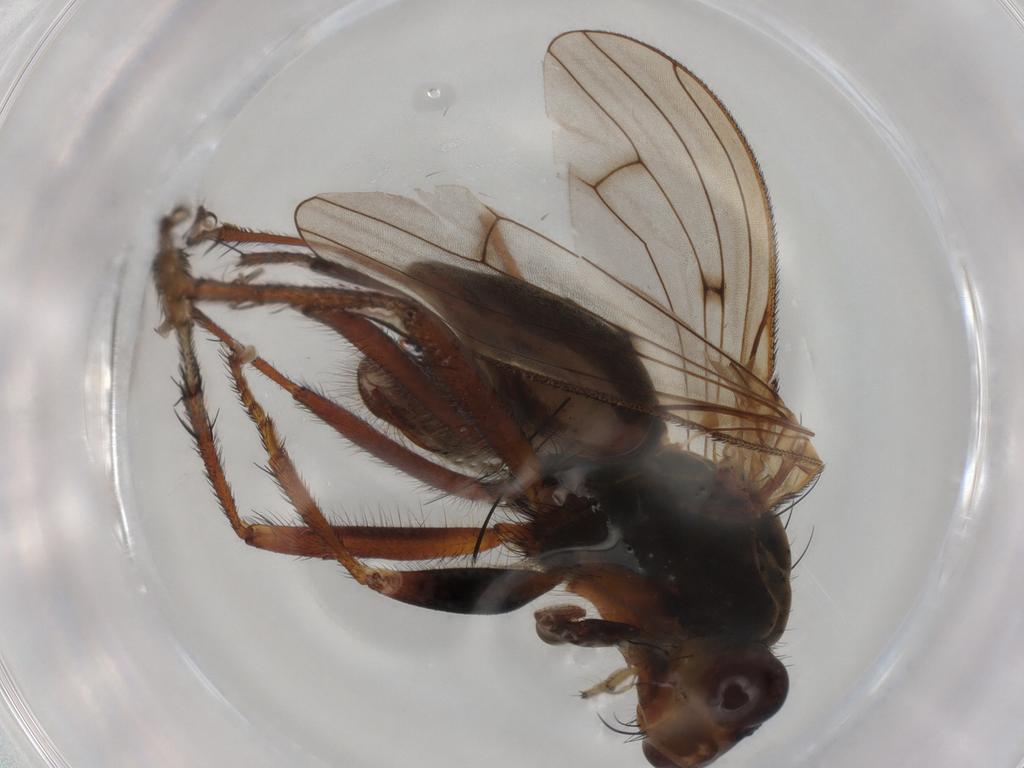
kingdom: Animalia
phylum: Arthropoda
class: Insecta
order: Diptera
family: Scathophagidae
